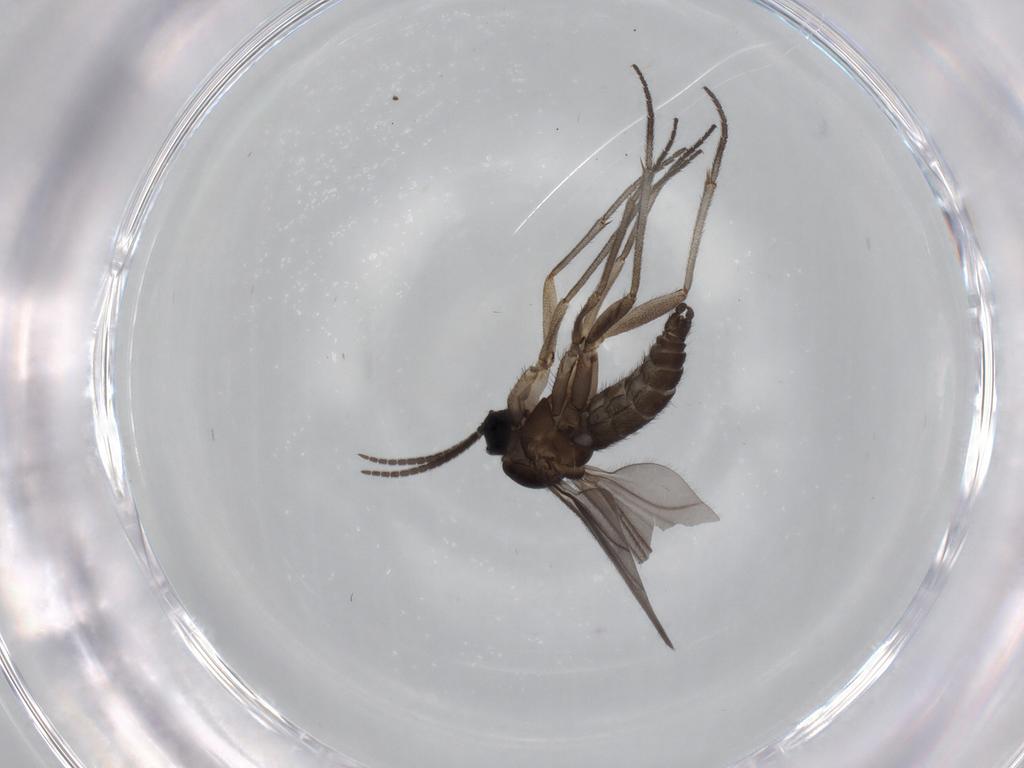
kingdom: Animalia
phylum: Arthropoda
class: Insecta
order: Diptera
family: Sciaridae
